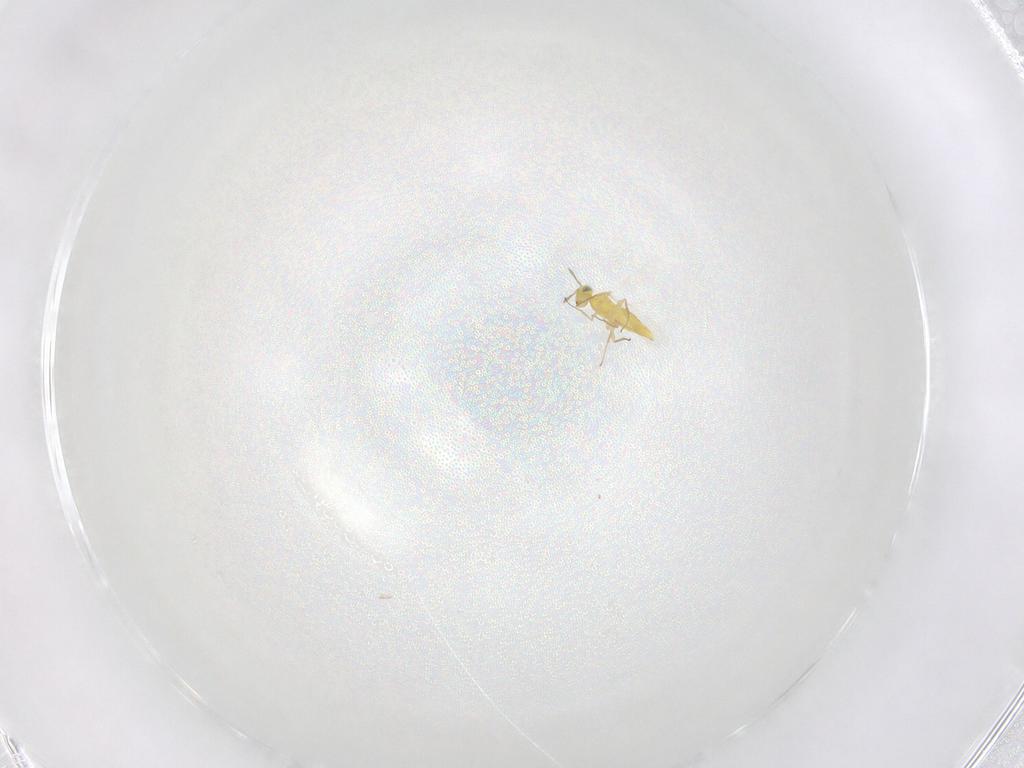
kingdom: Animalia
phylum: Arthropoda
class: Insecta
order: Hymenoptera
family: Aphelinidae
